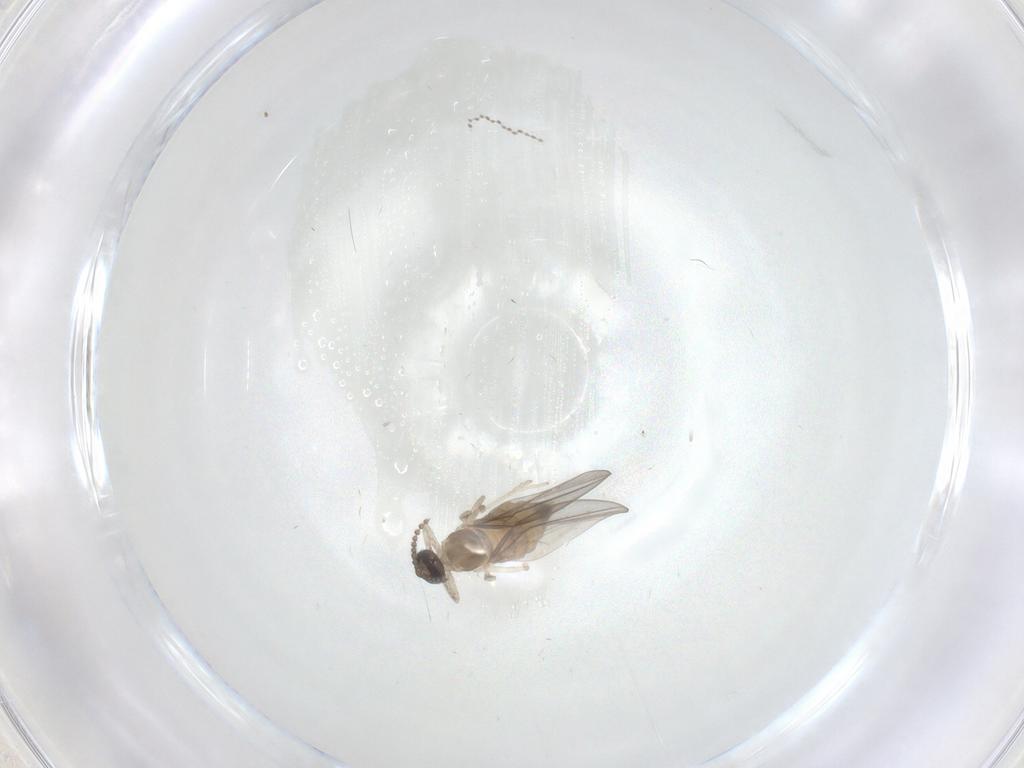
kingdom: Animalia
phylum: Arthropoda
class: Insecta
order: Diptera
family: Cecidomyiidae
